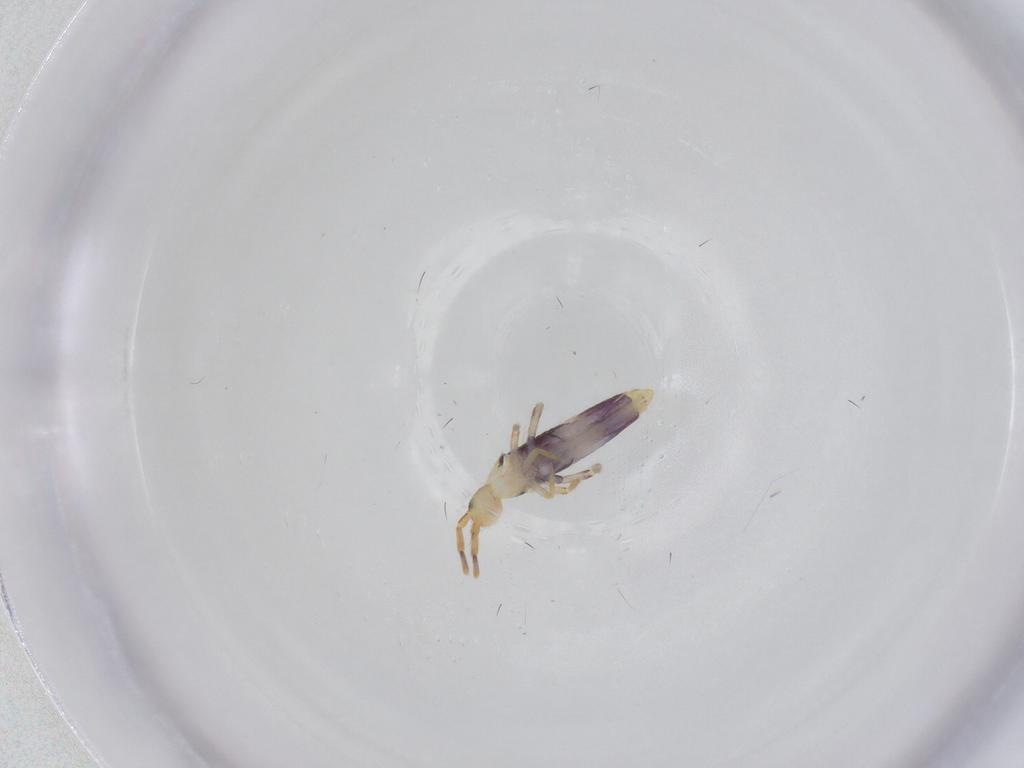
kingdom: Animalia
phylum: Arthropoda
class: Collembola
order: Entomobryomorpha
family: Entomobryidae
